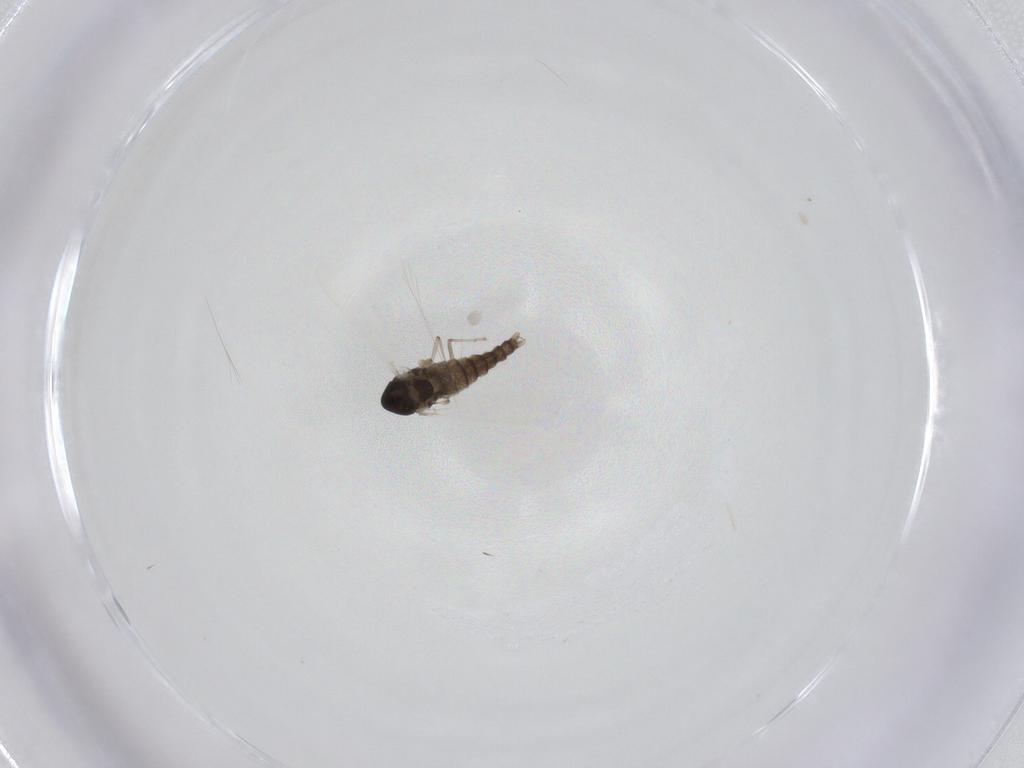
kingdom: Animalia
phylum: Arthropoda
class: Insecta
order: Diptera
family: Chironomidae
